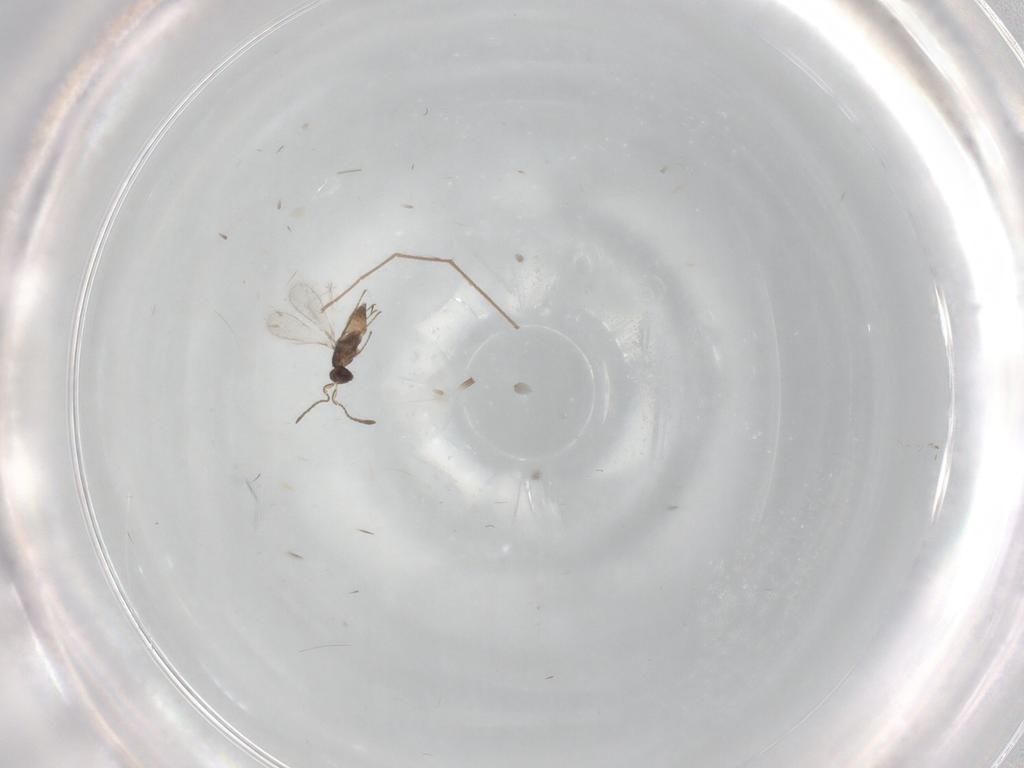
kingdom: Animalia
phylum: Arthropoda
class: Insecta
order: Hymenoptera
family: Mymaridae
